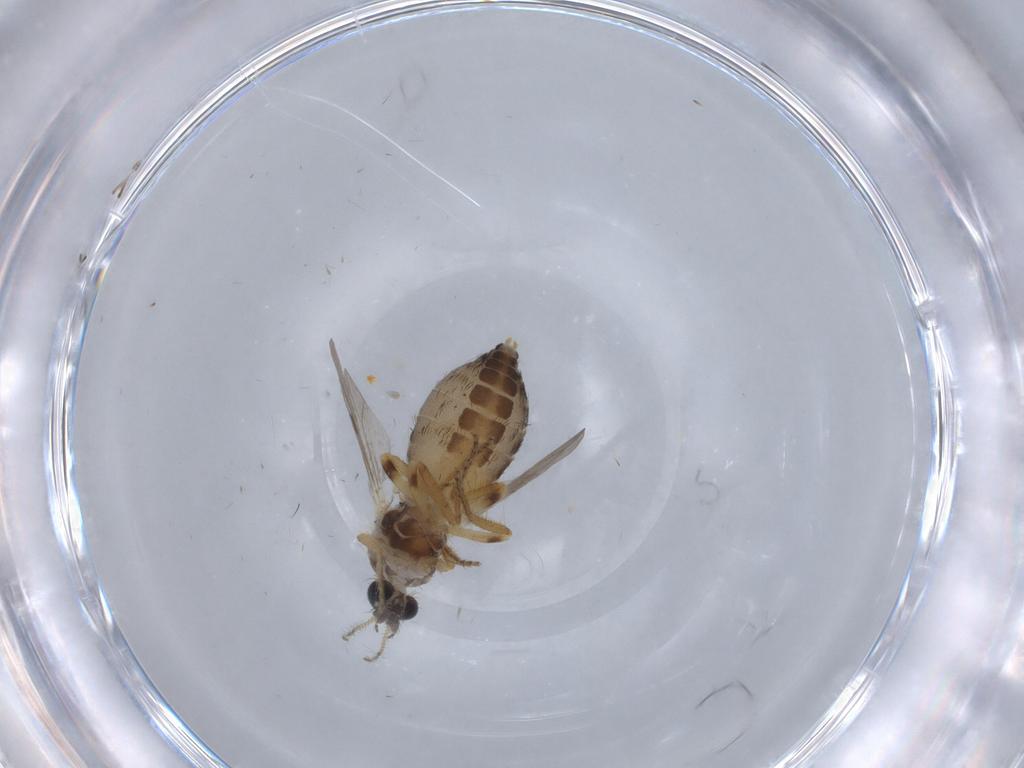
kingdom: Animalia
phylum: Arthropoda
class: Insecta
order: Diptera
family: Ceratopogonidae
